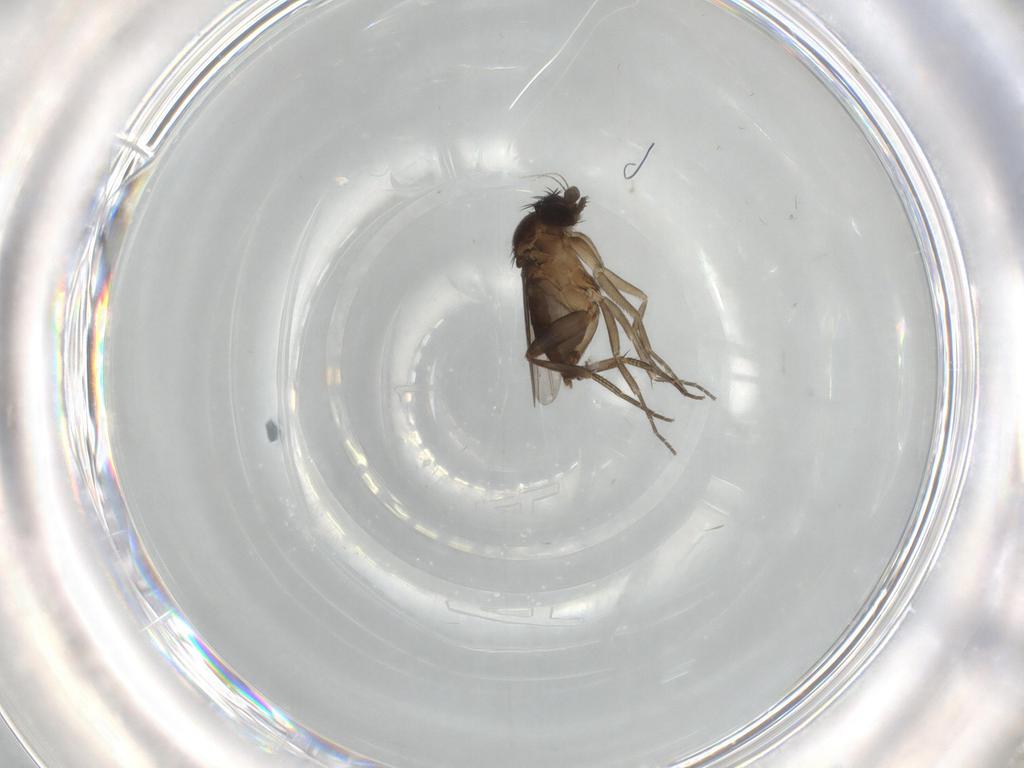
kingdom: Animalia
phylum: Arthropoda
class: Insecta
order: Diptera
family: Phoridae
